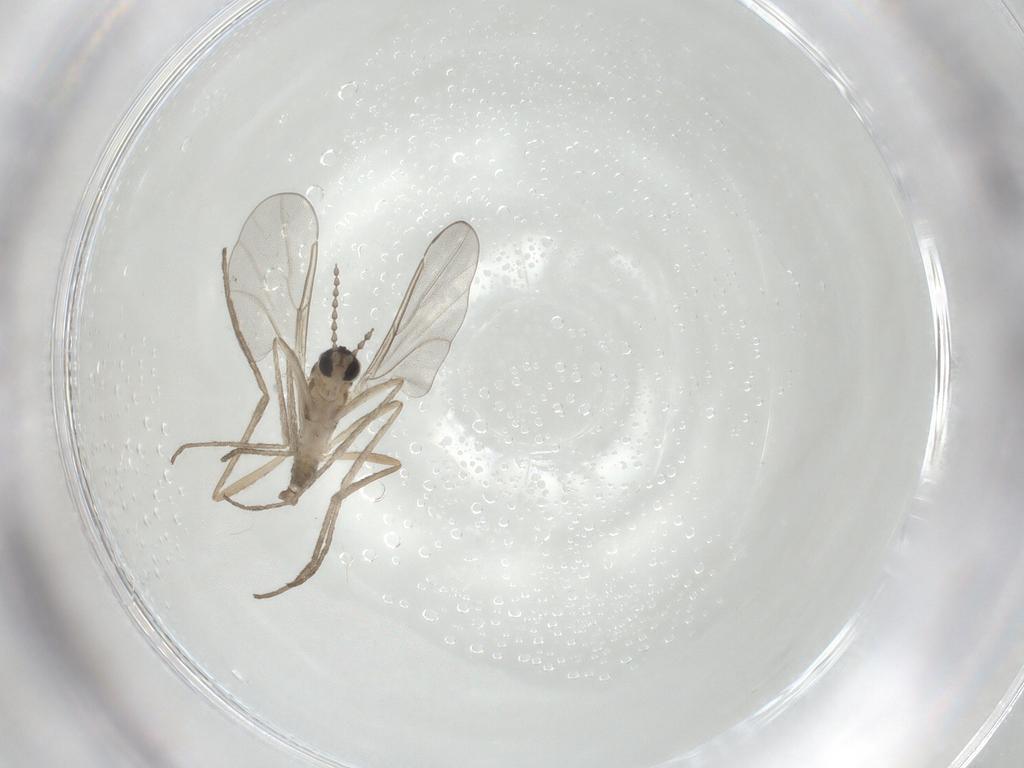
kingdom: Animalia
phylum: Arthropoda
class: Insecta
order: Diptera
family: Cecidomyiidae
